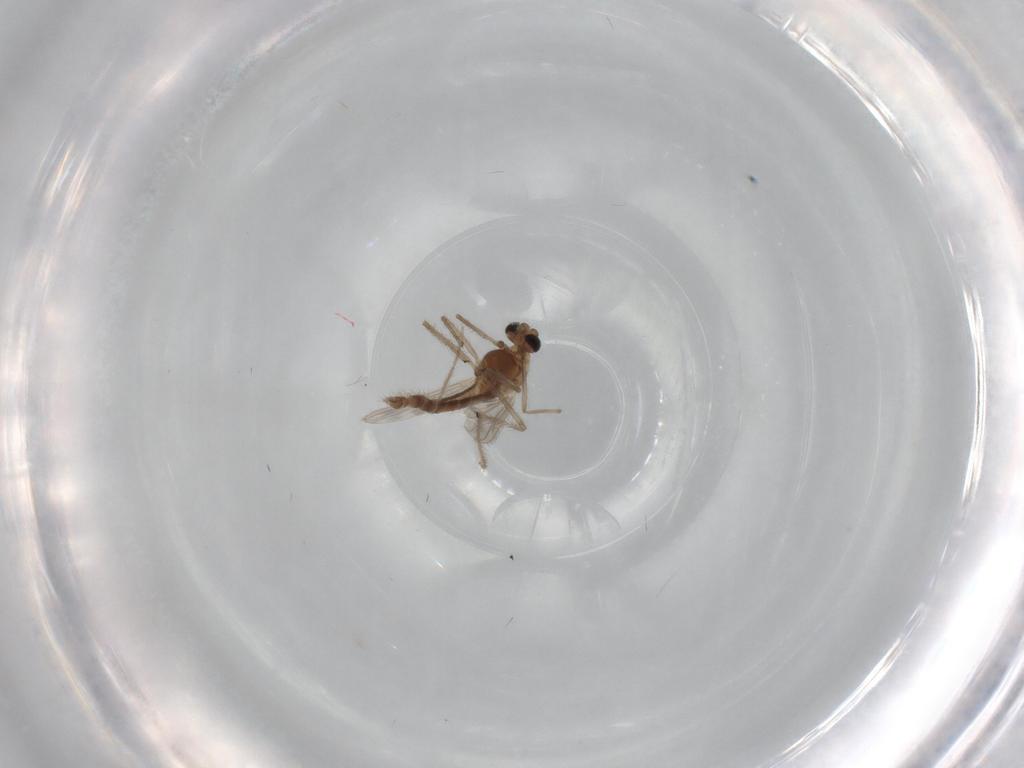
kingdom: Animalia
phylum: Arthropoda
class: Insecta
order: Diptera
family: Chironomidae
